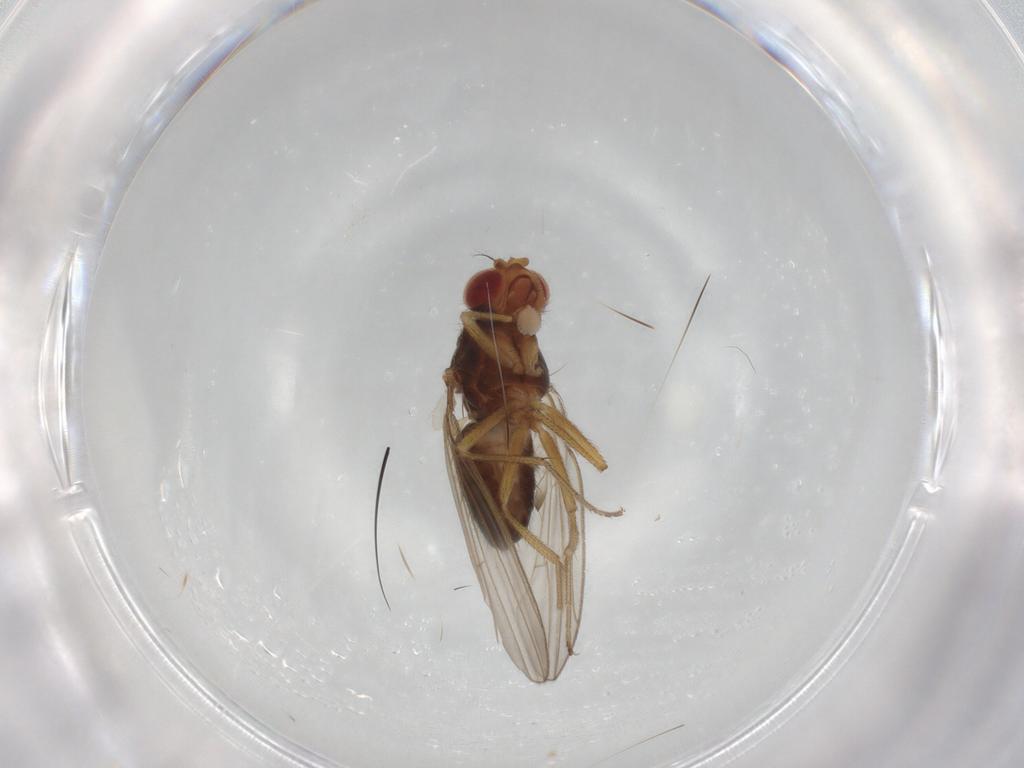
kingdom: Animalia
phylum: Arthropoda
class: Insecta
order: Diptera
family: Drosophilidae
